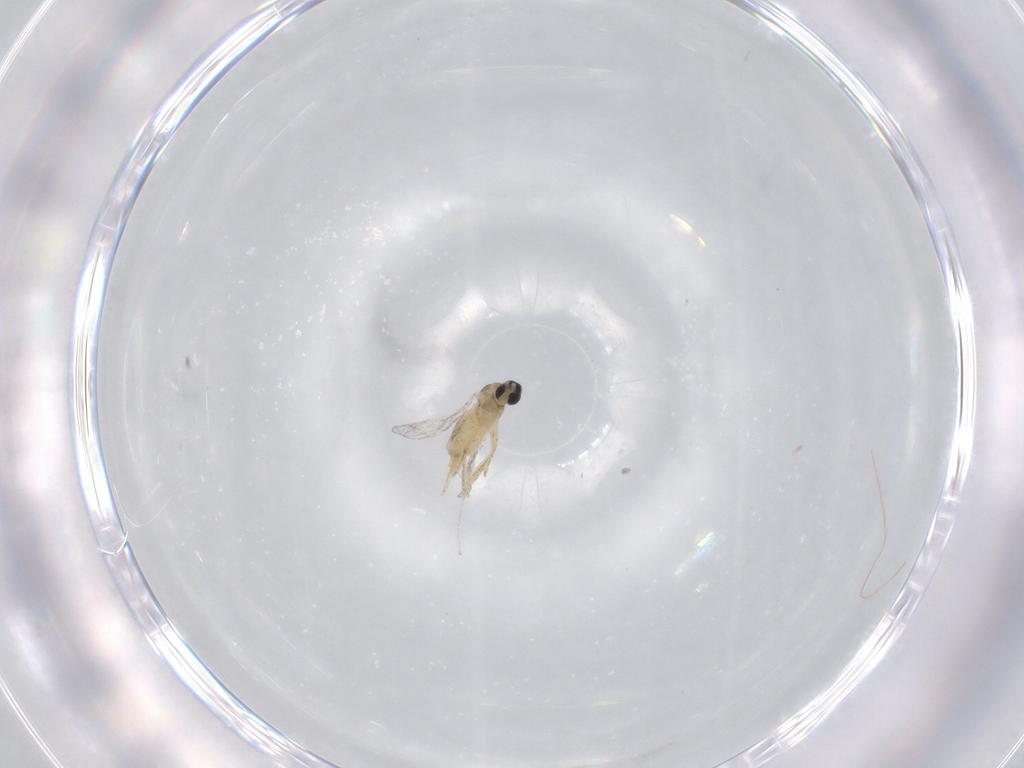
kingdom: Animalia
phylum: Arthropoda
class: Insecta
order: Diptera
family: Cecidomyiidae
